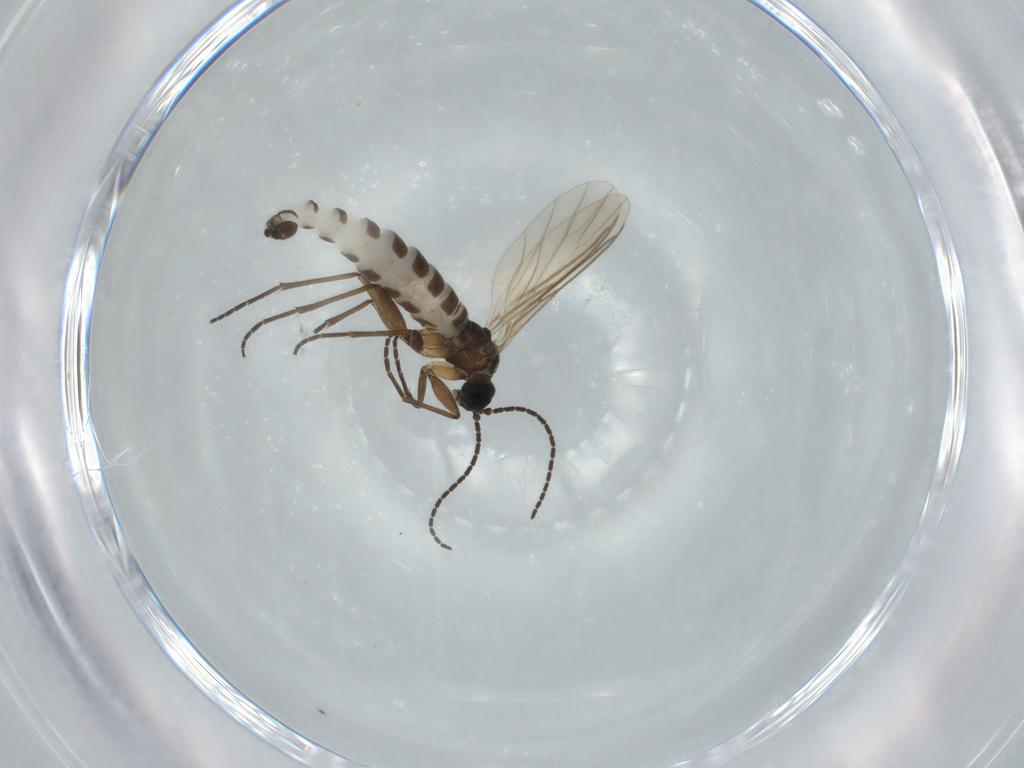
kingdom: Animalia
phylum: Arthropoda
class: Insecta
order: Diptera
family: Sciaridae
